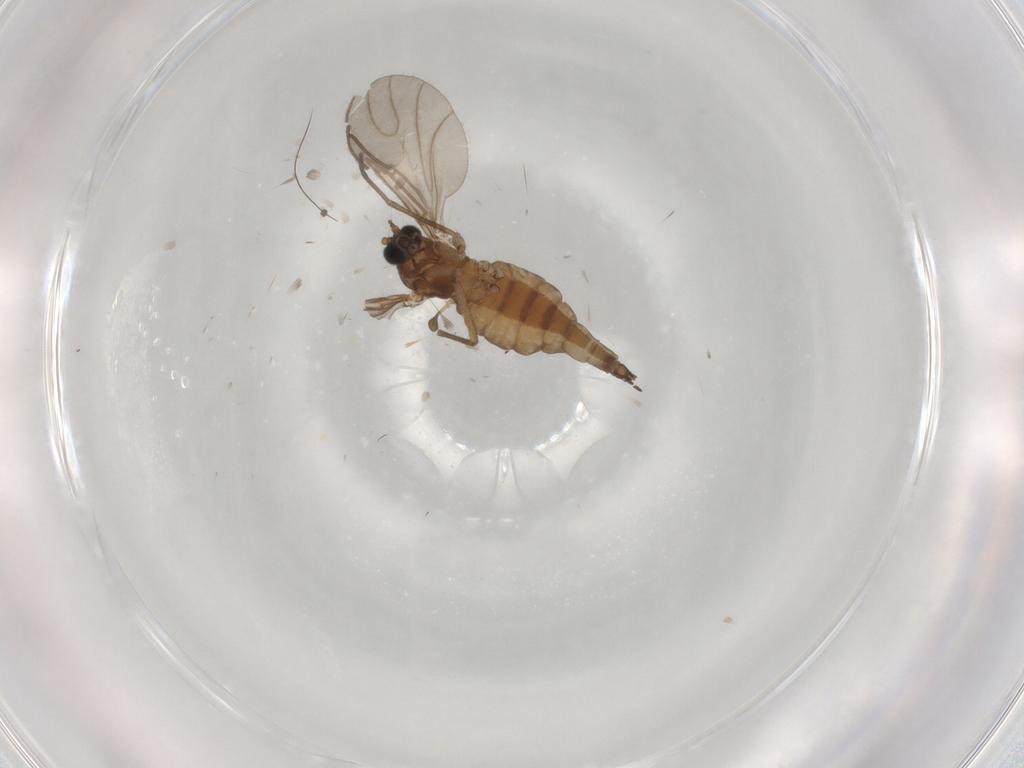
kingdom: Animalia
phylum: Arthropoda
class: Insecta
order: Diptera
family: Sciaridae
